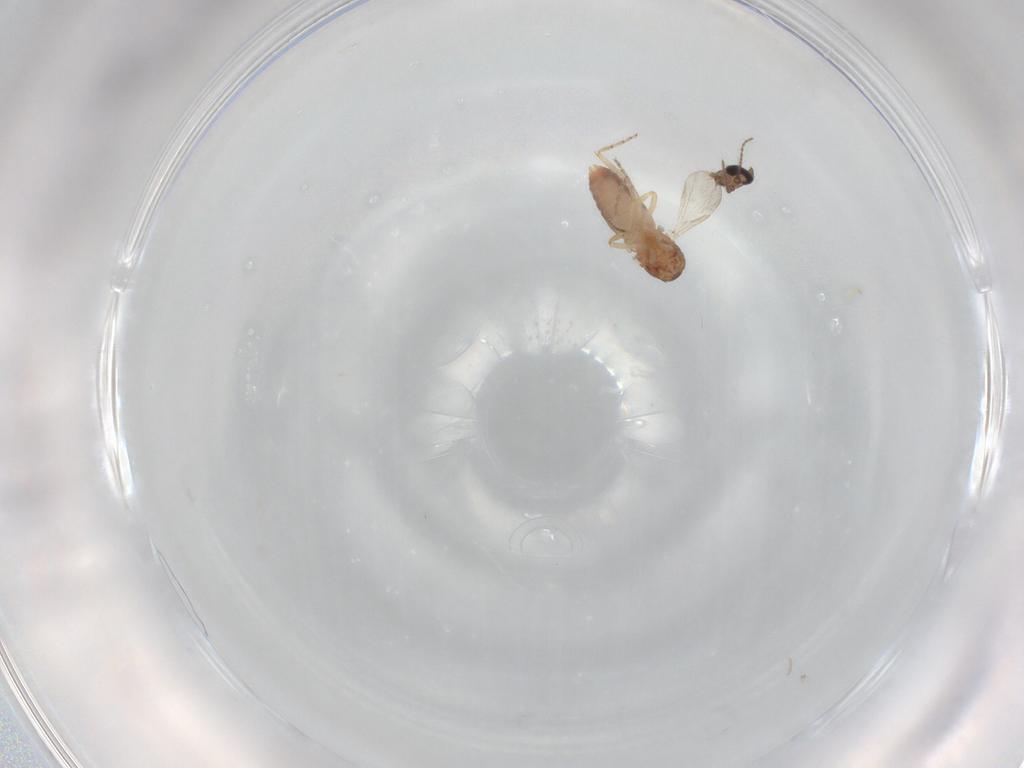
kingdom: Animalia
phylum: Arthropoda
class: Insecta
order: Diptera
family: Cecidomyiidae
